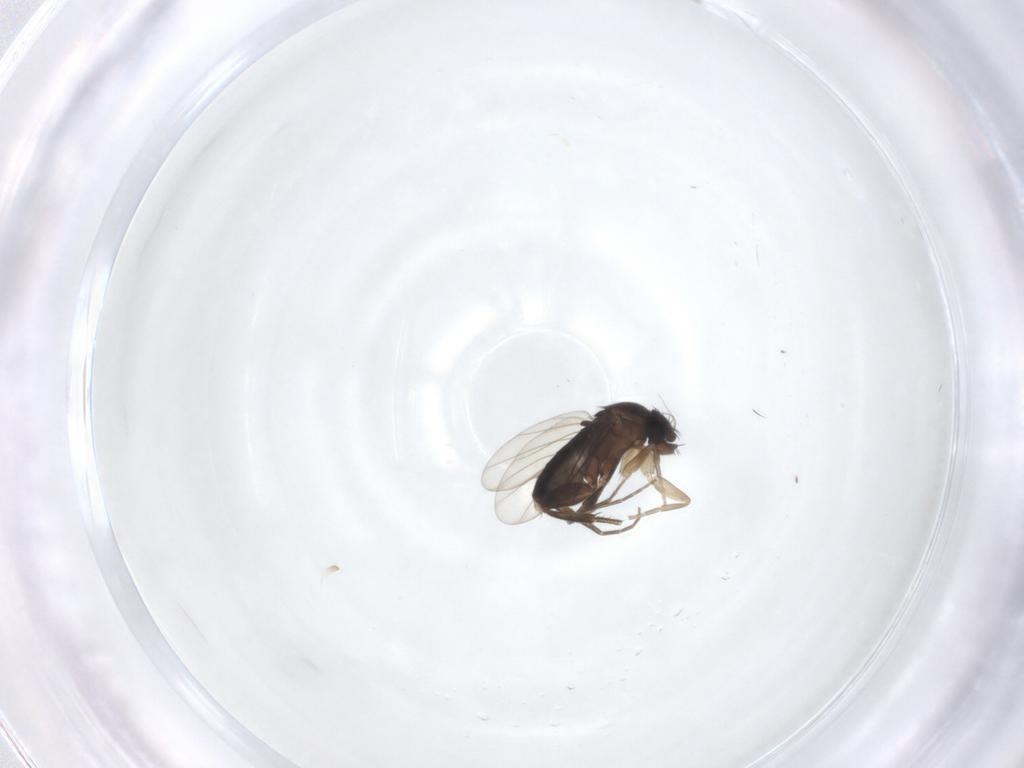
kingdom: Animalia
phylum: Arthropoda
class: Insecta
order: Diptera
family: Phoridae
